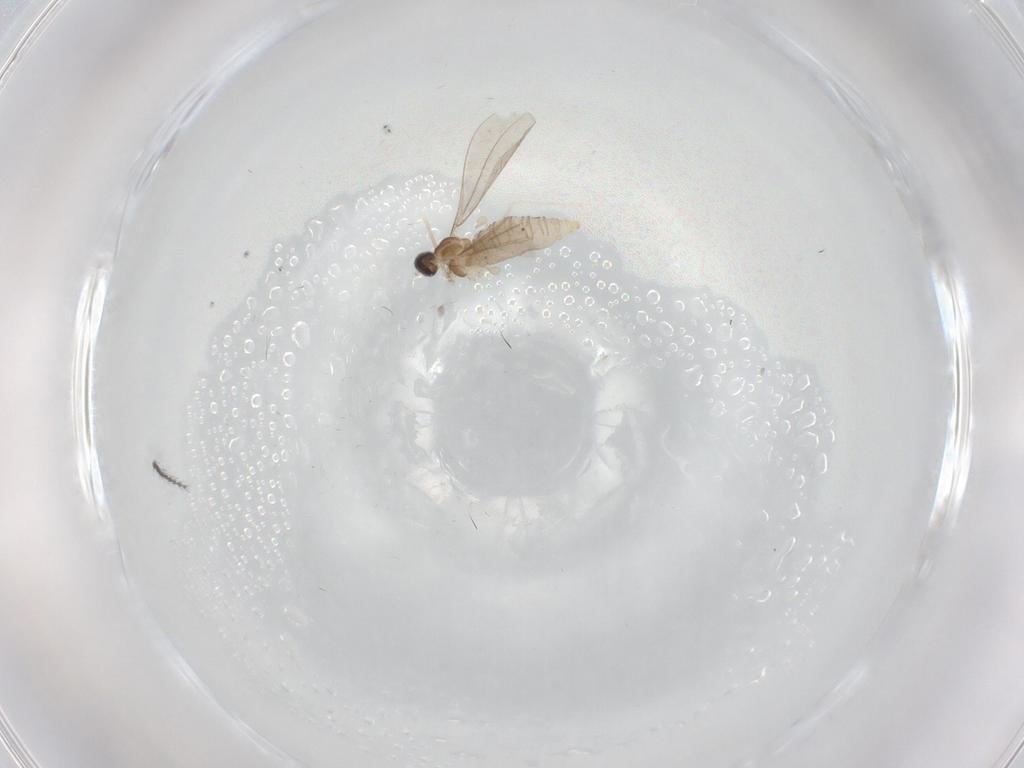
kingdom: Animalia
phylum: Arthropoda
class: Insecta
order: Diptera
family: Cecidomyiidae
